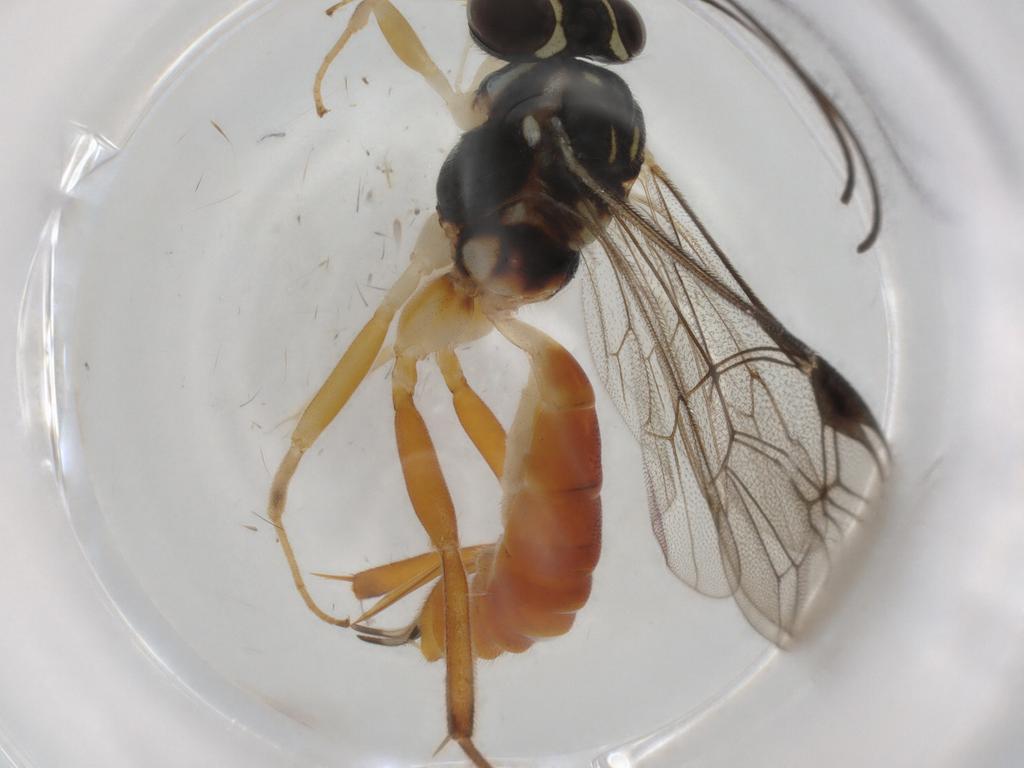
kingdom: Animalia
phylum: Arthropoda
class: Insecta
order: Hymenoptera
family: Ichneumonidae
